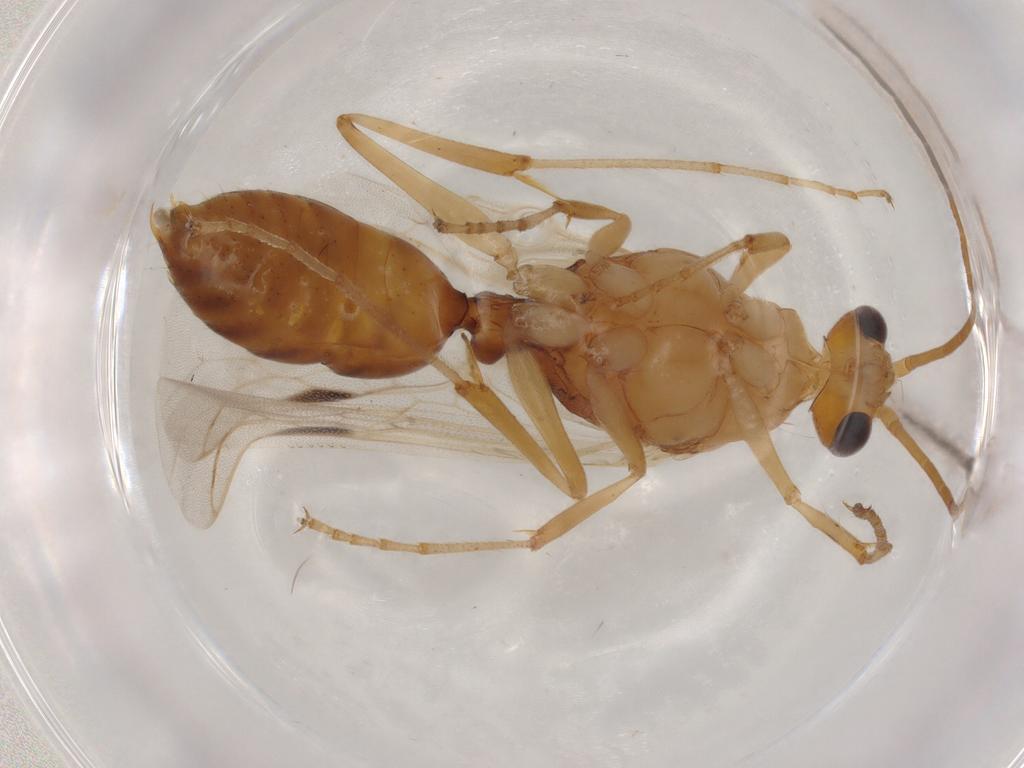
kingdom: Animalia
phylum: Arthropoda
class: Insecta
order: Hymenoptera
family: Formicidae
